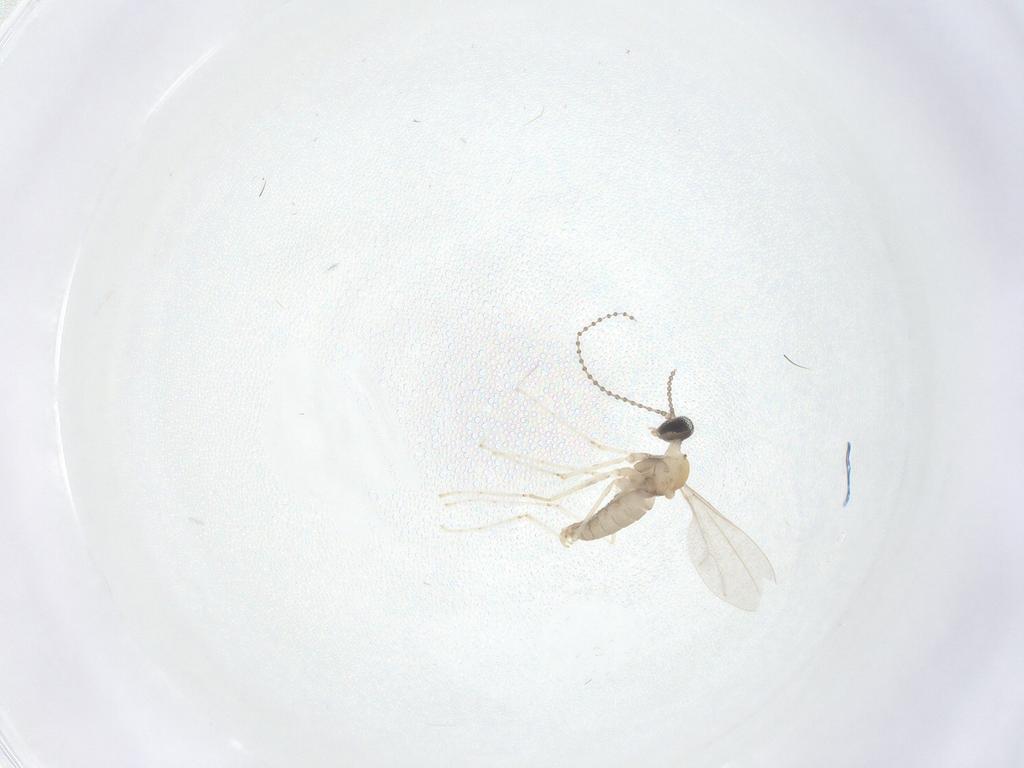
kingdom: Animalia
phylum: Arthropoda
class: Insecta
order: Diptera
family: Cecidomyiidae
